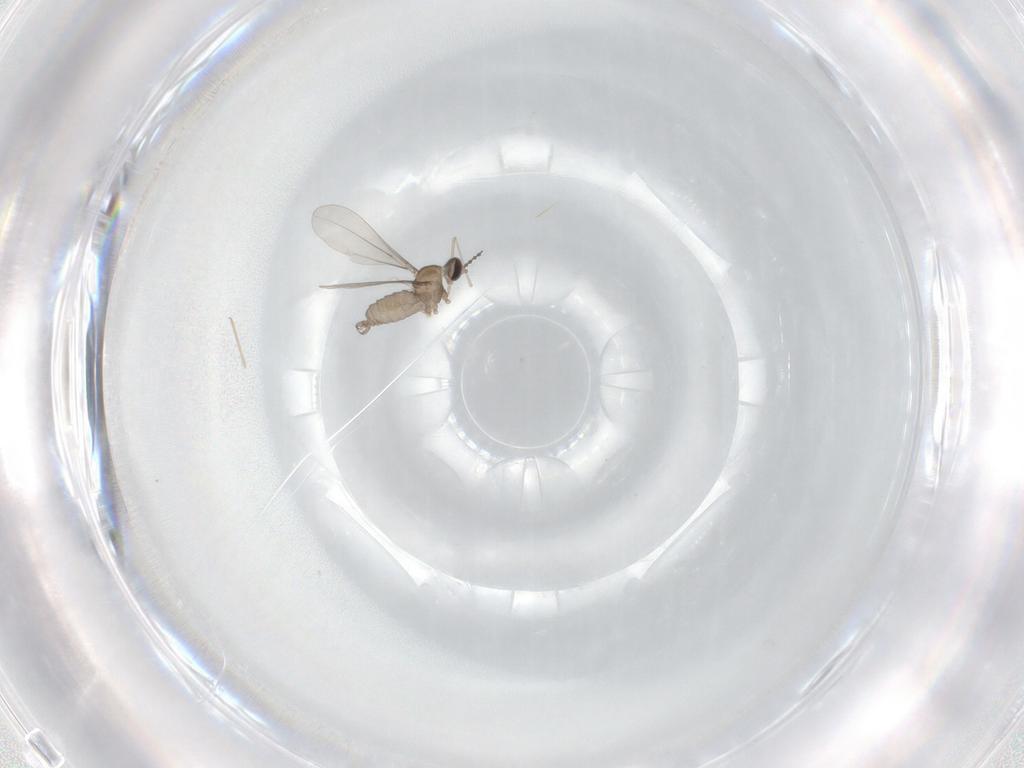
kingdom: Animalia
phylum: Arthropoda
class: Insecta
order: Diptera
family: Cecidomyiidae
